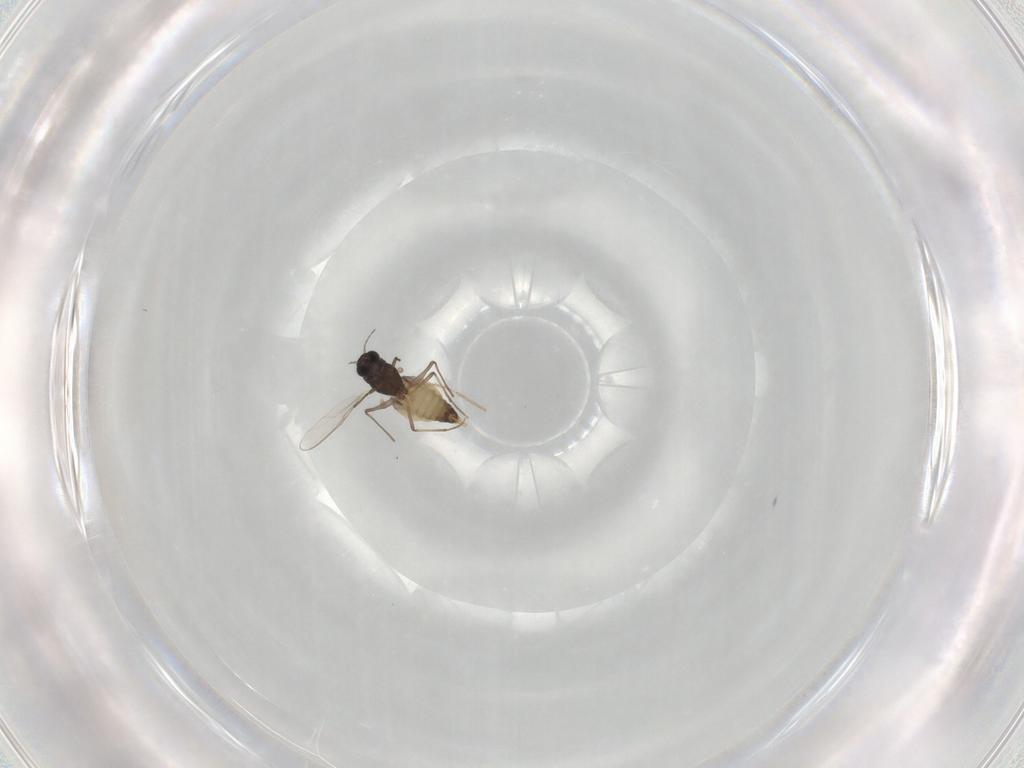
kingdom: Animalia
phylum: Arthropoda
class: Insecta
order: Diptera
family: Chironomidae
